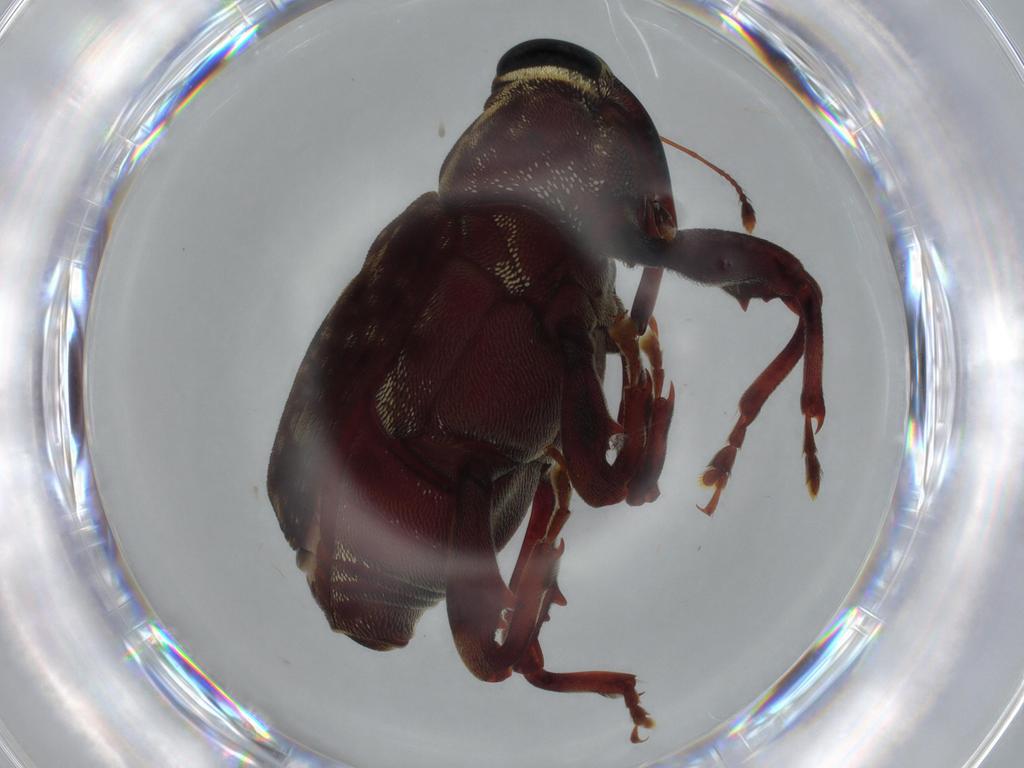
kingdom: Animalia
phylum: Arthropoda
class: Insecta
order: Coleoptera
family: Curculionidae
